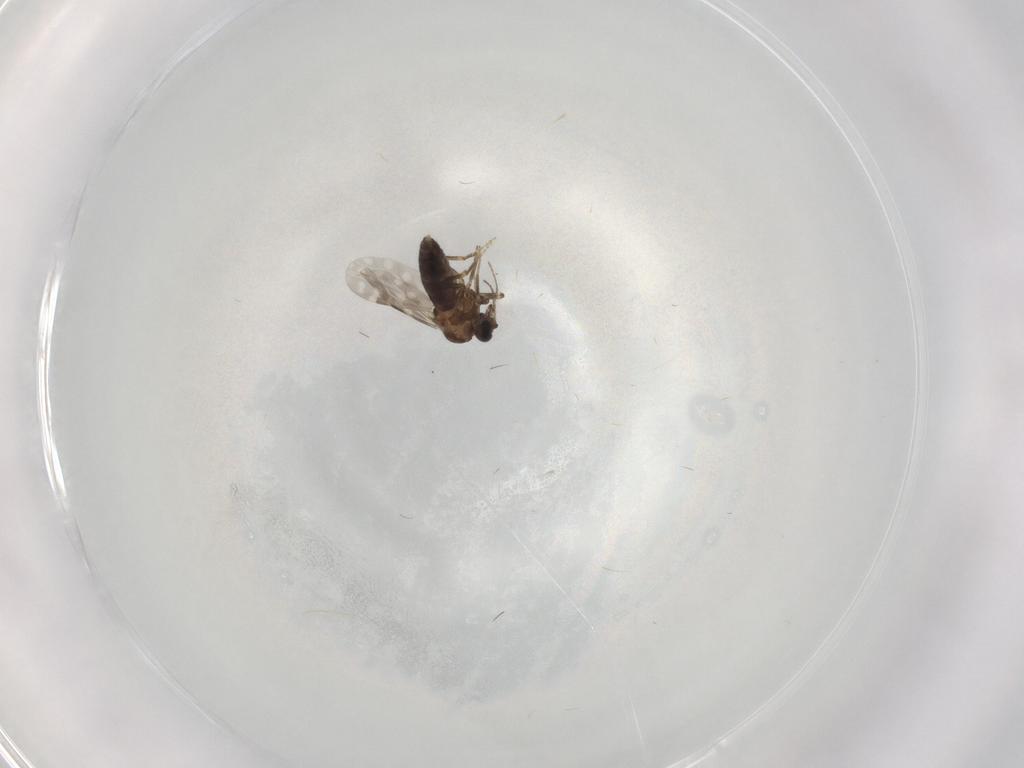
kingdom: Animalia
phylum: Arthropoda
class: Insecta
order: Diptera
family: Ceratopogonidae
